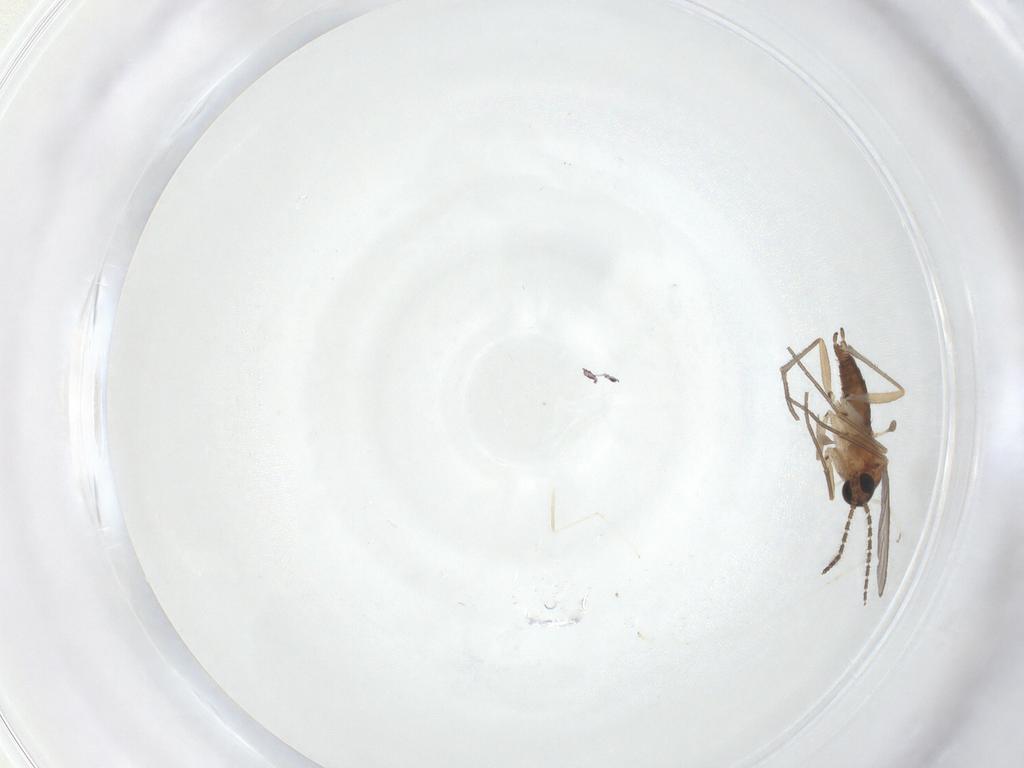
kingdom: Animalia
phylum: Arthropoda
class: Insecta
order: Diptera
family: Sciaridae
